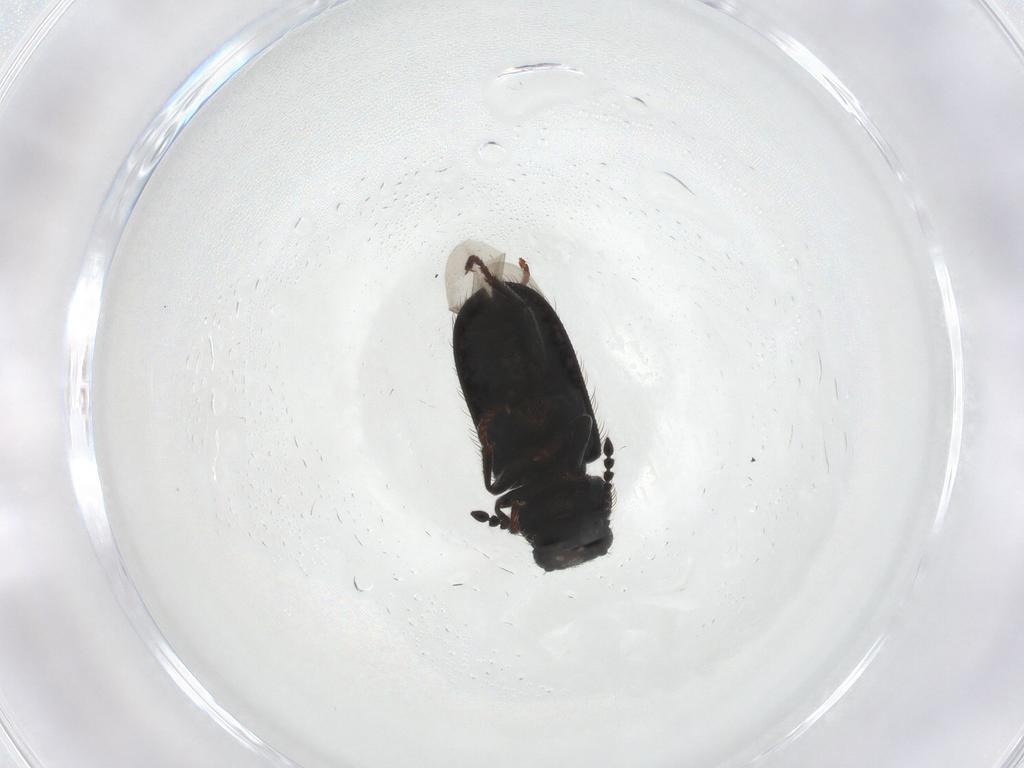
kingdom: Animalia
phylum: Arthropoda
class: Insecta
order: Coleoptera
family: Melyridae
